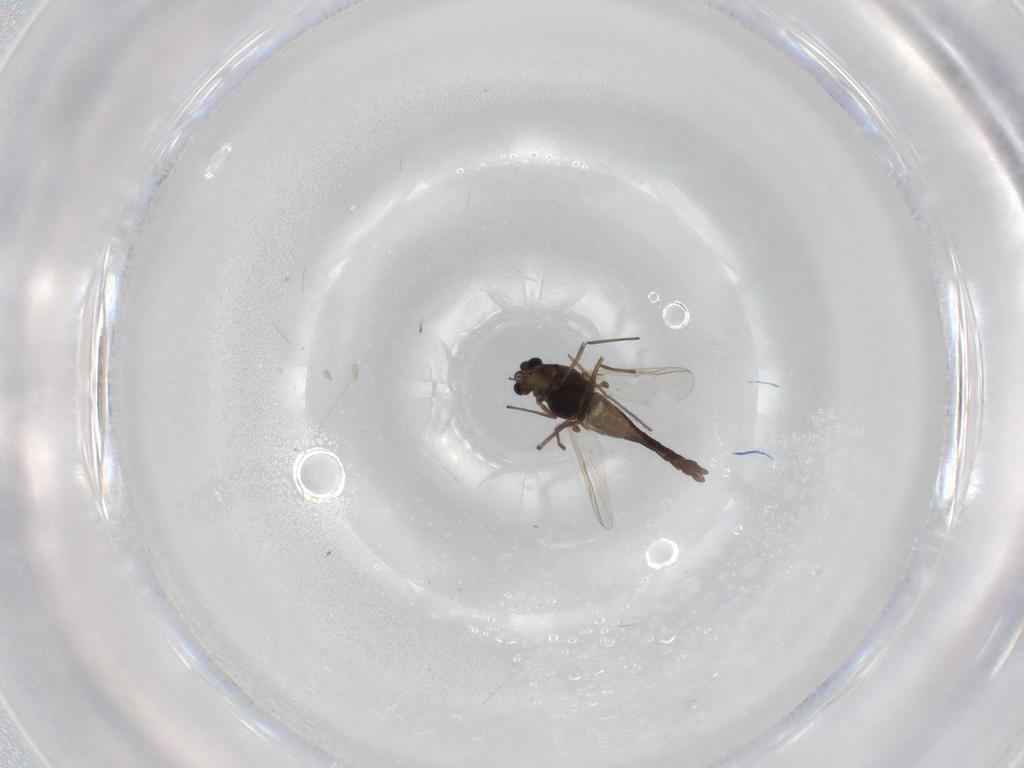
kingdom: Animalia
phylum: Arthropoda
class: Insecta
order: Diptera
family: Chironomidae
